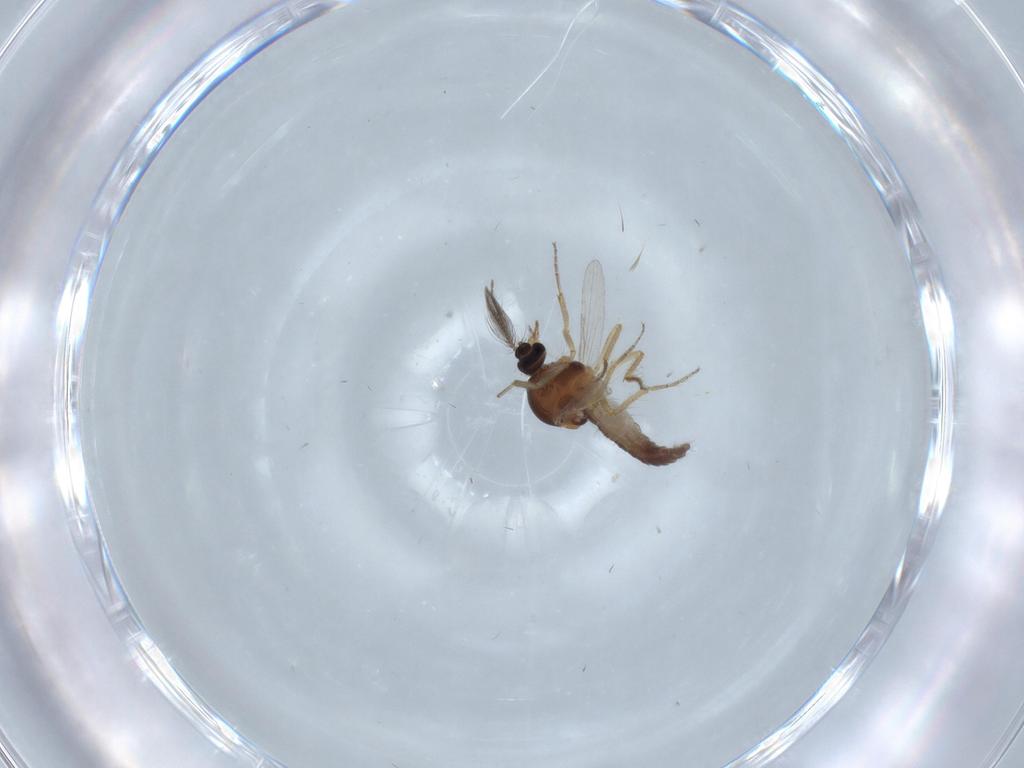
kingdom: Animalia
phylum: Arthropoda
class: Insecta
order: Diptera
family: Ceratopogonidae
